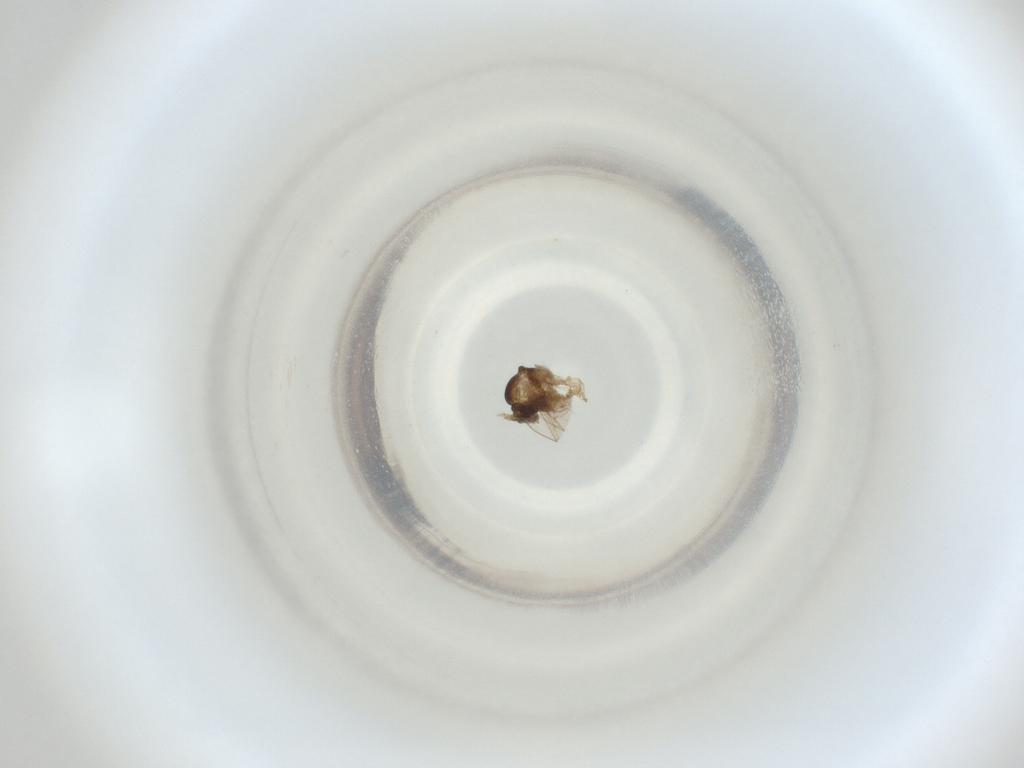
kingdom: Animalia
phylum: Arthropoda
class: Insecta
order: Diptera
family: Cecidomyiidae
